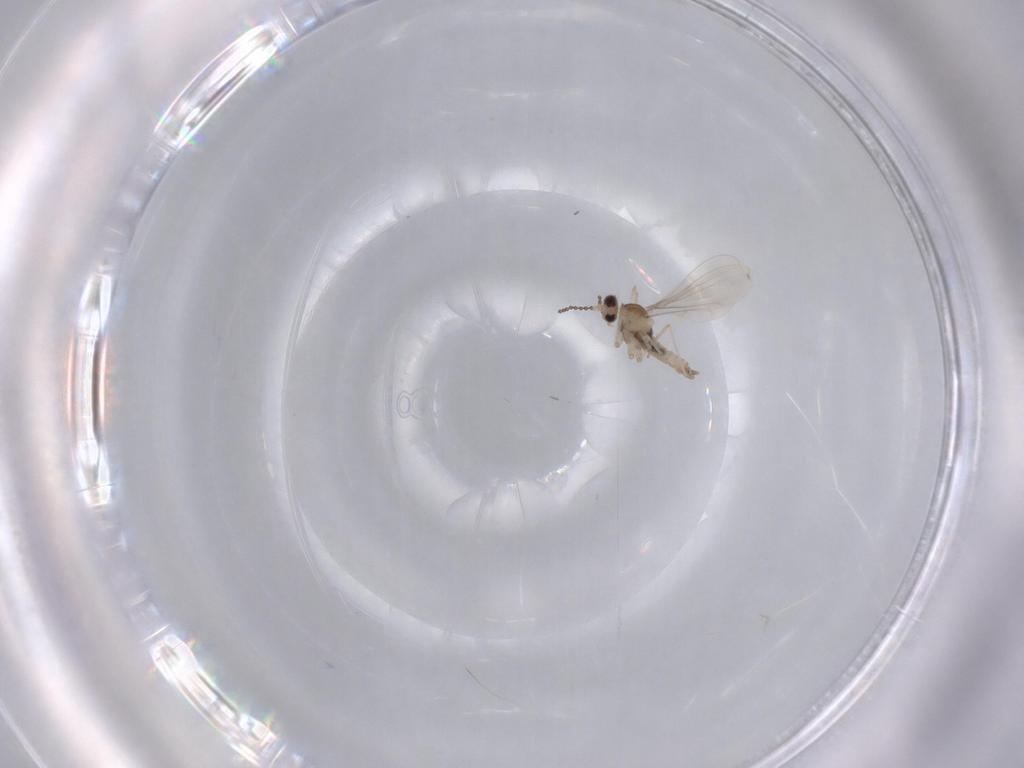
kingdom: Animalia
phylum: Arthropoda
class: Insecta
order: Diptera
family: Cecidomyiidae
